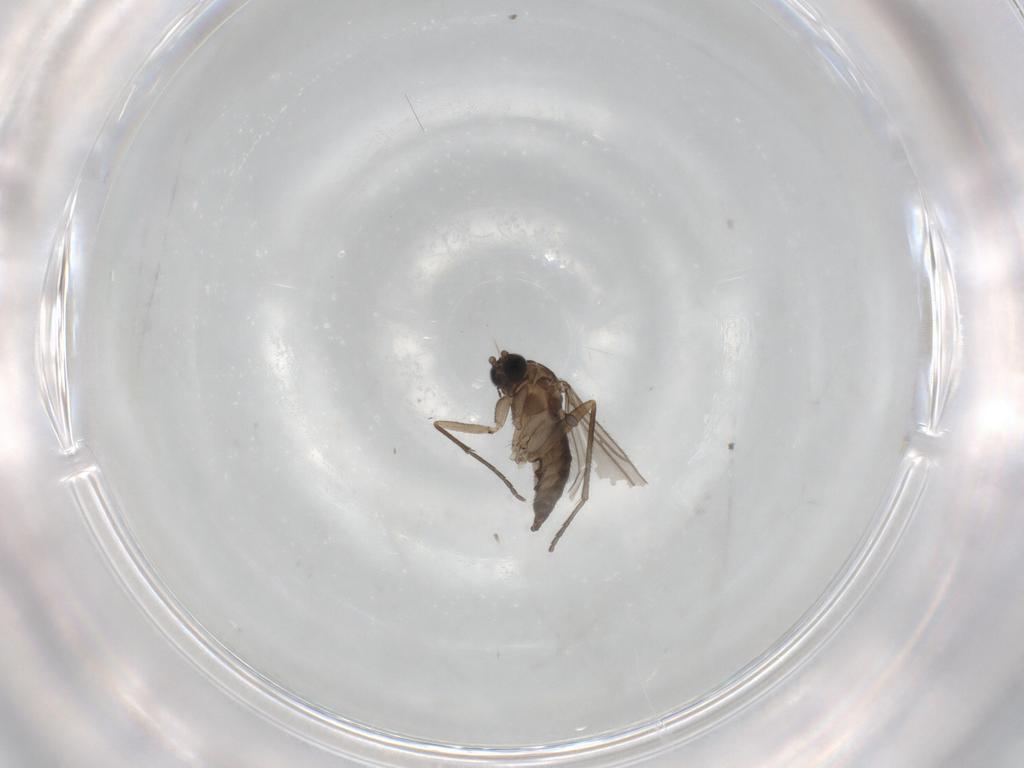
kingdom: Animalia
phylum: Arthropoda
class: Insecta
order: Diptera
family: Sciaridae
